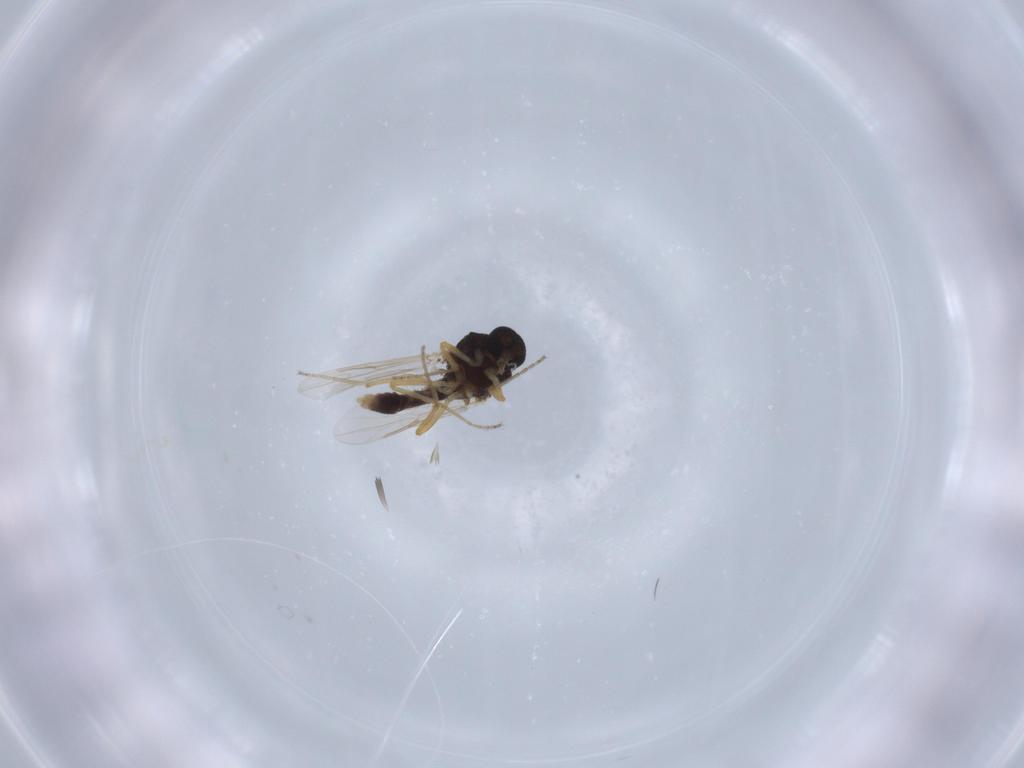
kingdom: Animalia
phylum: Arthropoda
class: Insecta
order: Diptera
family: Ceratopogonidae
